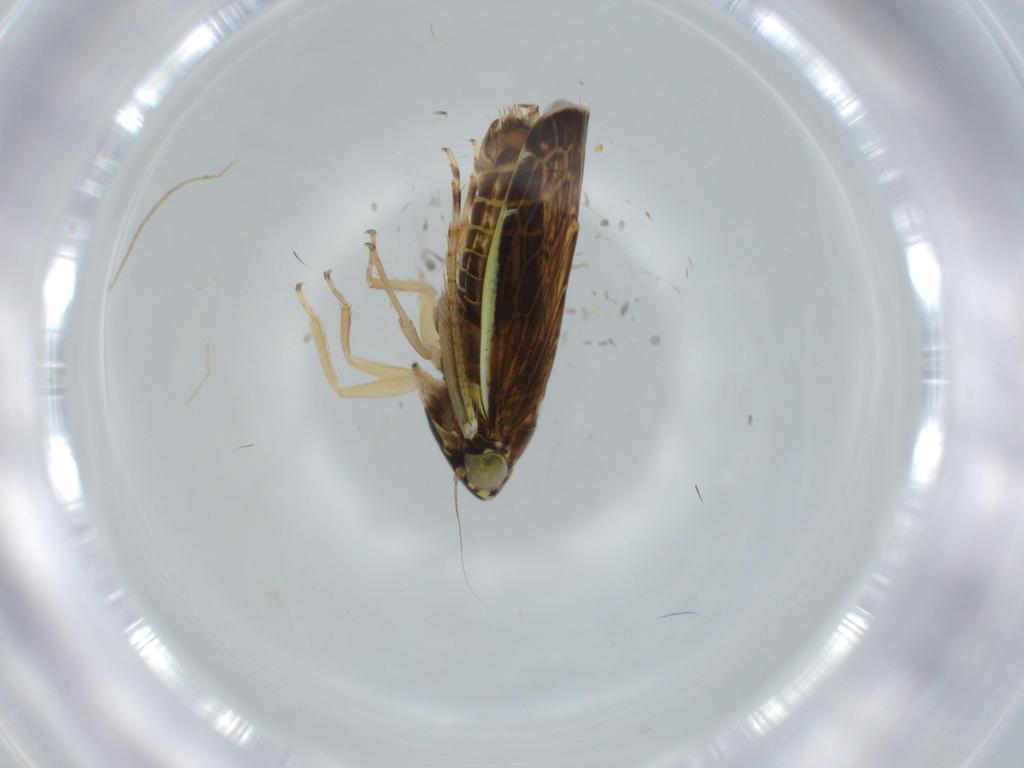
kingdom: Animalia
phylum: Arthropoda
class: Insecta
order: Hemiptera
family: Cicadellidae
